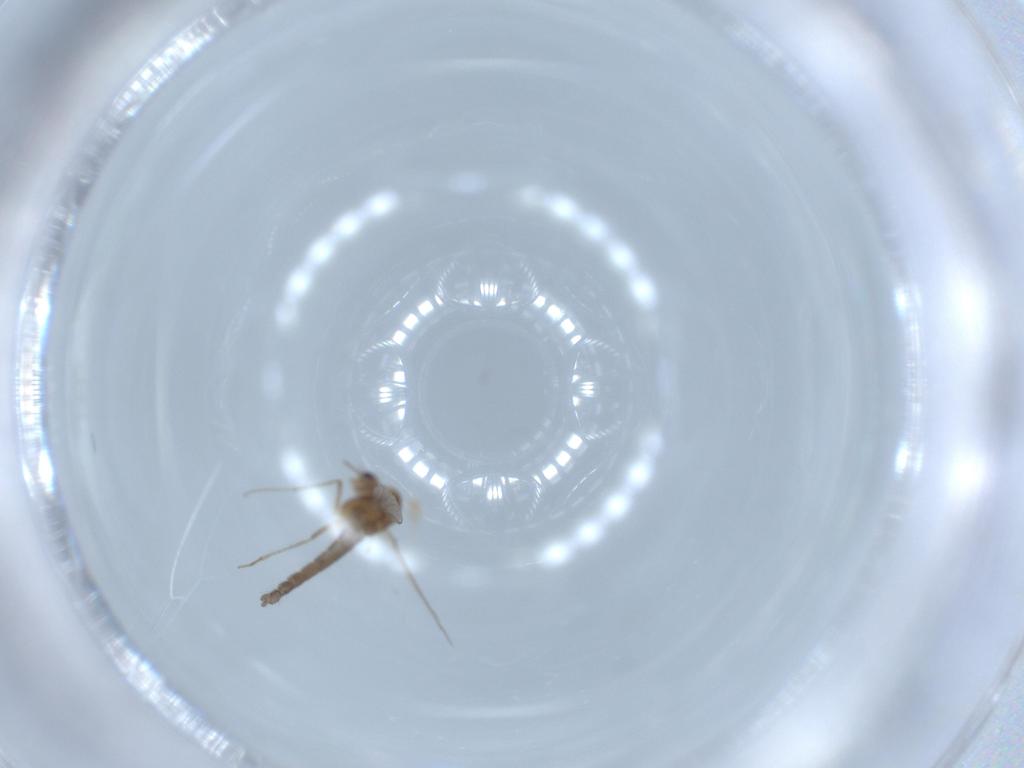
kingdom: Animalia
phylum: Arthropoda
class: Insecta
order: Diptera
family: Chironomidae
